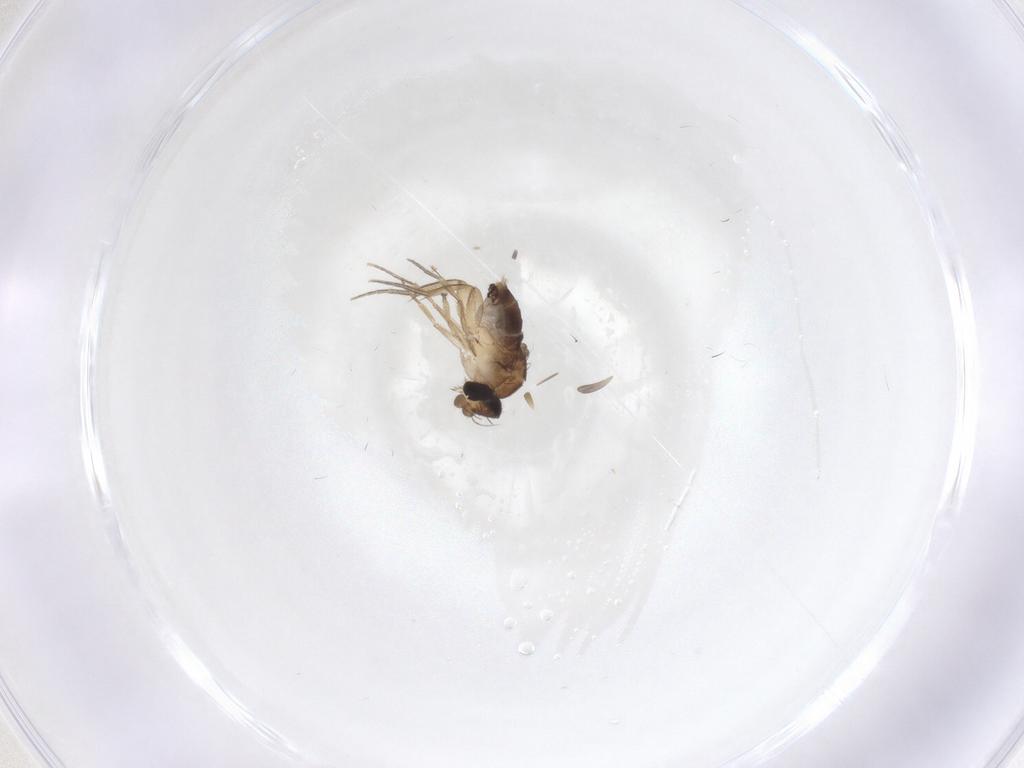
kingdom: Animalia
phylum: Arthropoda
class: Insecta
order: Diptera
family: Phoridae
